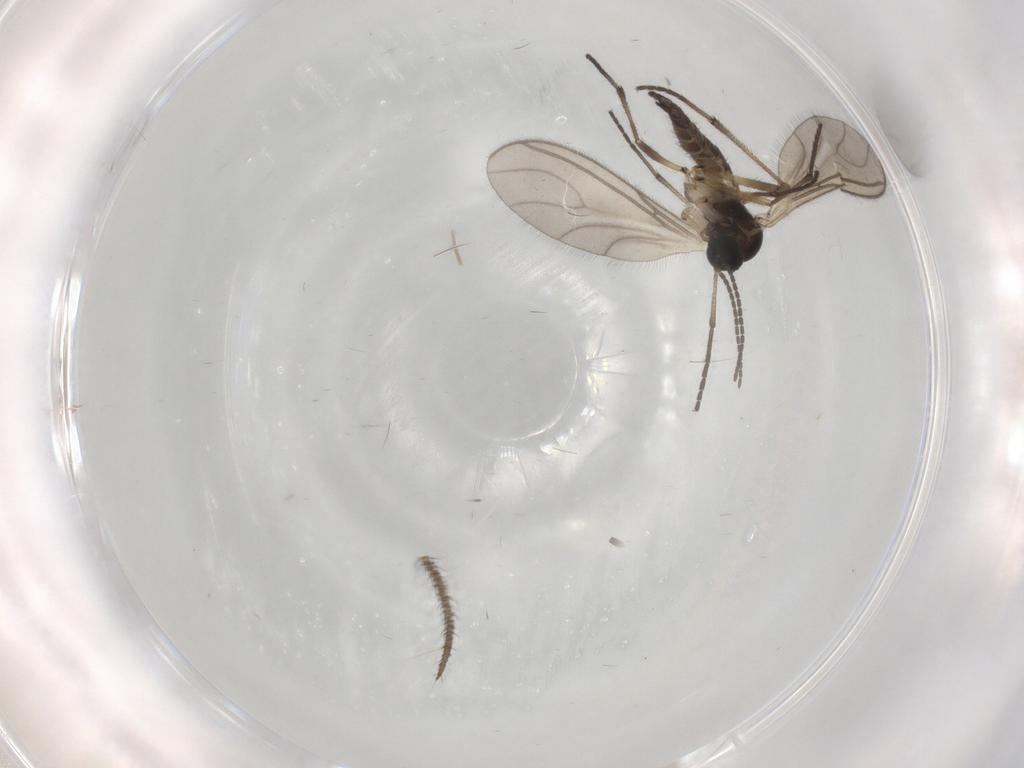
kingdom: Animalia
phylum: Arthropoda
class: Insecta
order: Diptera
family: Sciaridae
